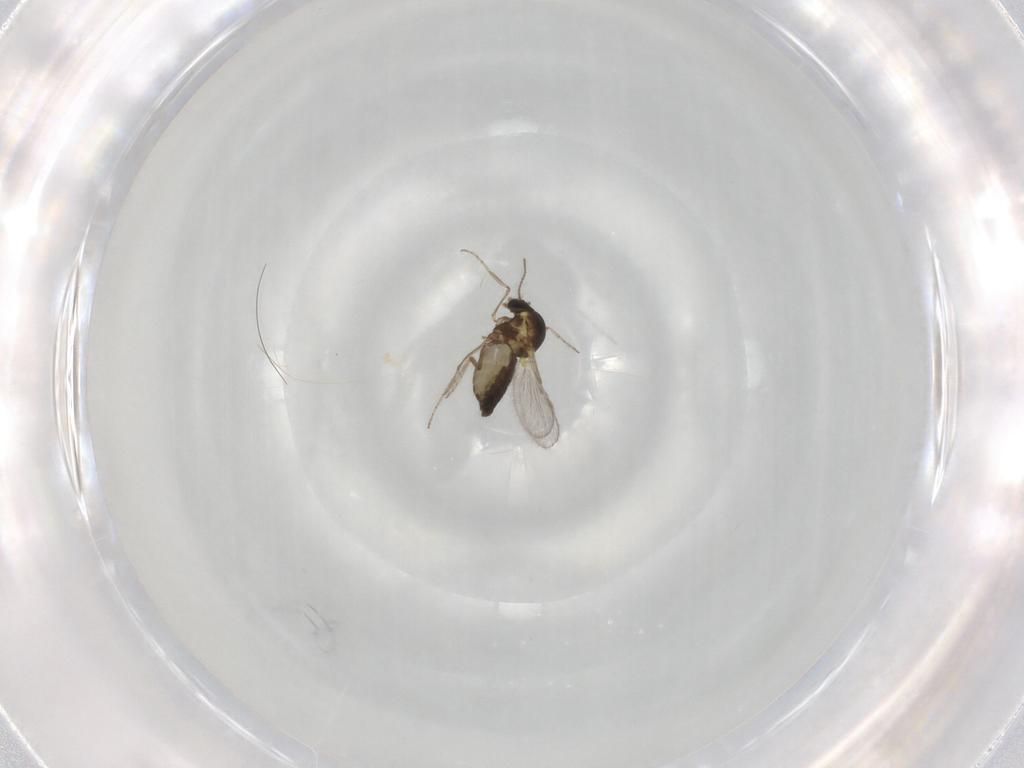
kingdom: Animalia
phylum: Arthropoda
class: Insecta
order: Diptera
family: Ceratopogonidae
